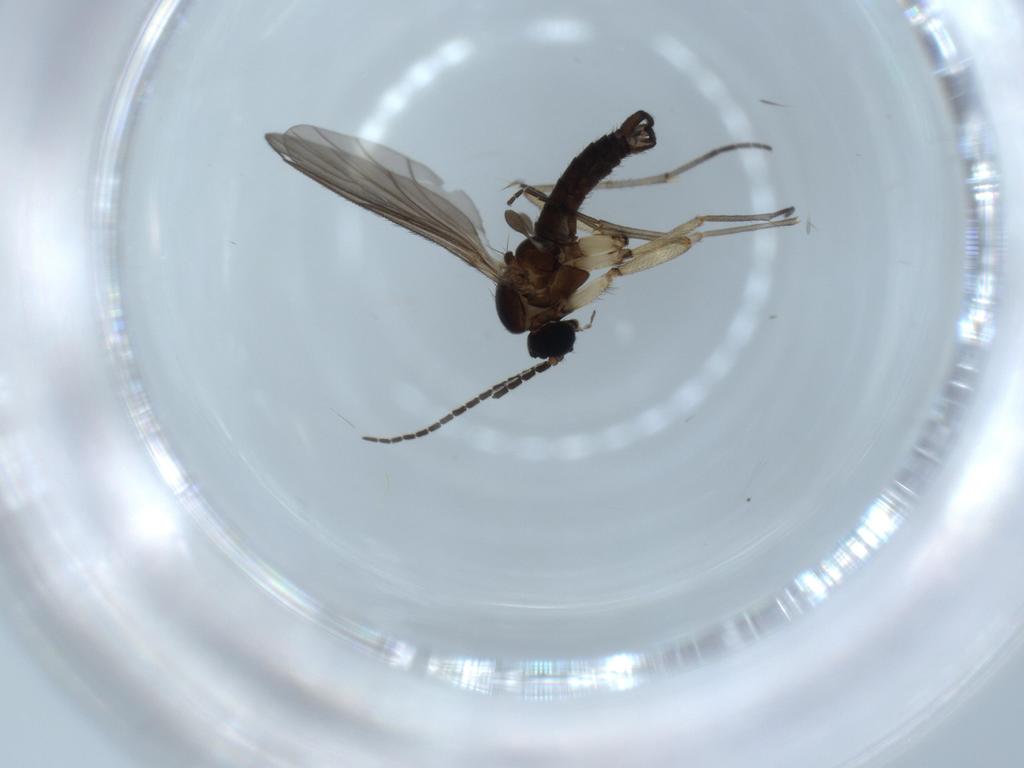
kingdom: Animalia
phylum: Arthropoda
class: Insecta
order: Diptera
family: Sciaridae
